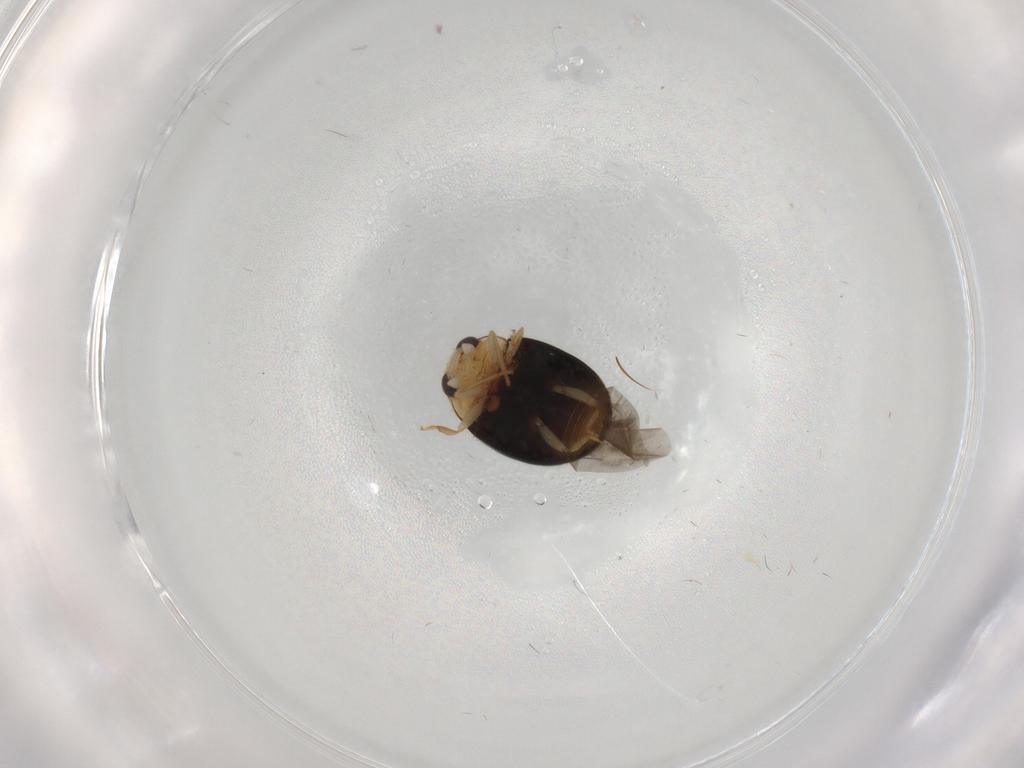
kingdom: Animalia
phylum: Arthropoda
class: Insecta
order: Coleoptera
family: Coccinellidae
